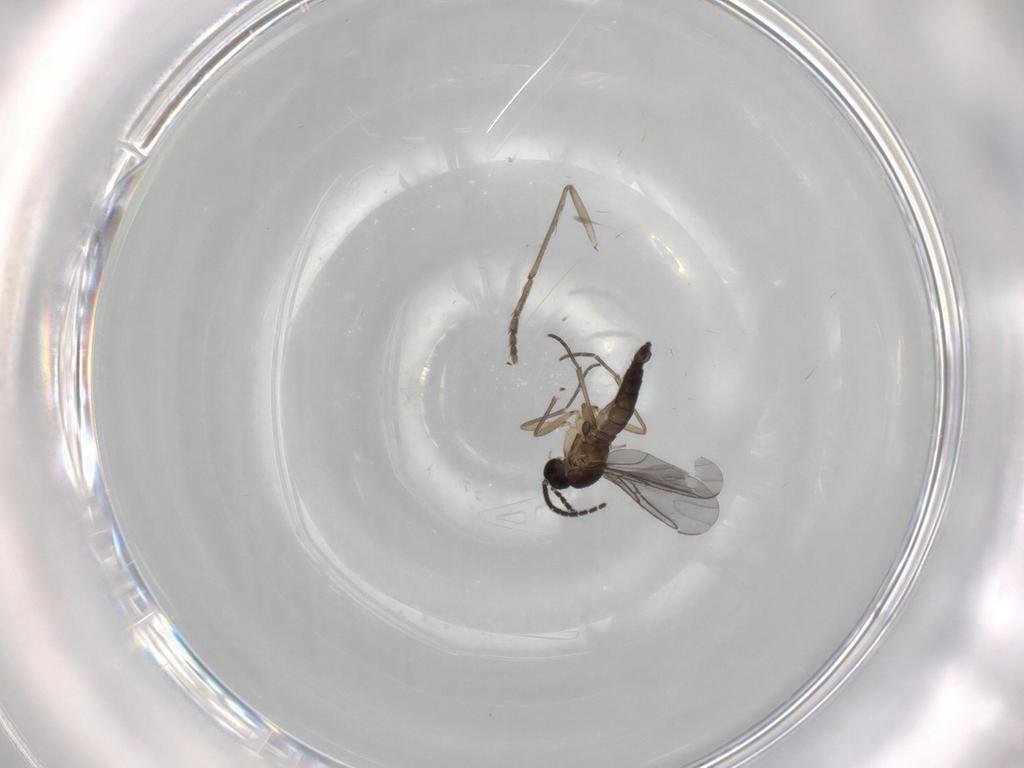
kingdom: Animalia
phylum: Arthropoda
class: Insecta
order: Diptera
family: Sciaridae
